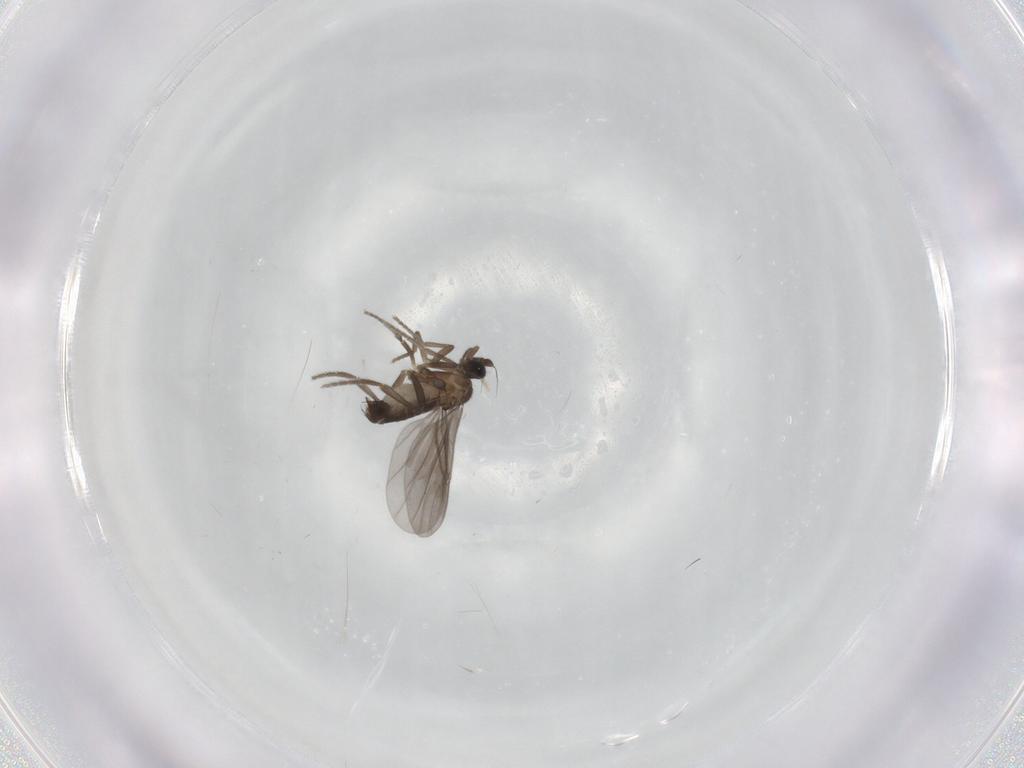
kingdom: Animalia
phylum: Arthropoda
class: Insecta
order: Diptera
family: Phoridae
